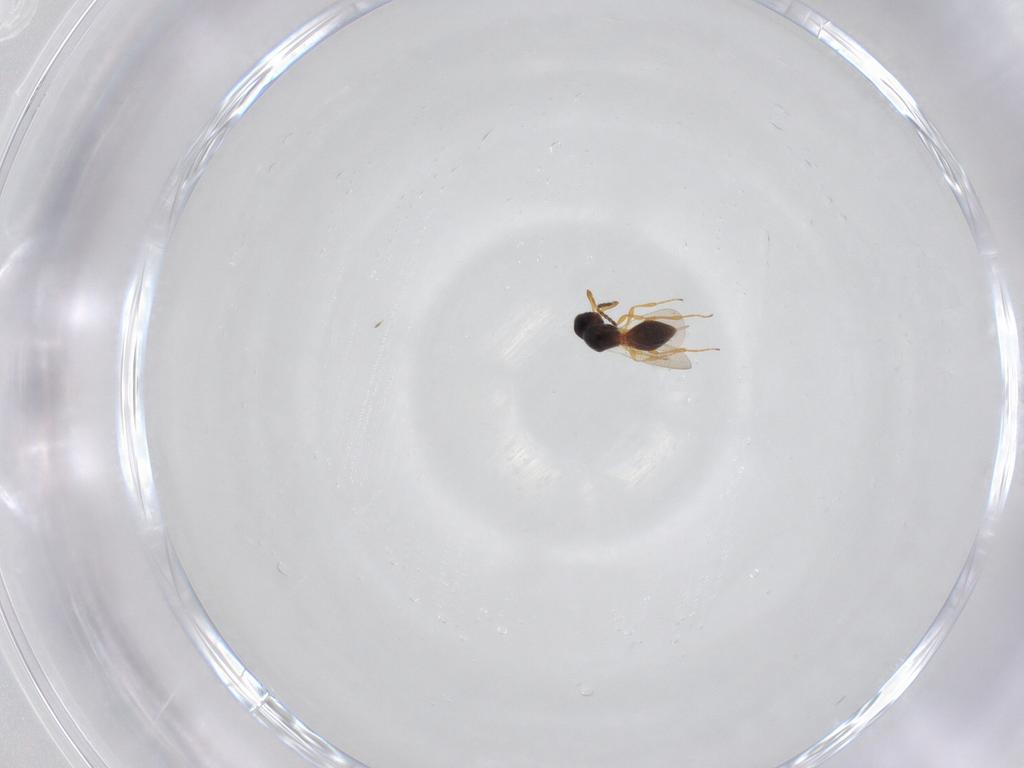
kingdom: Animalia
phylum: Arthropoda
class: Insecta
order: Hymenoptera
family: Platygastridae
